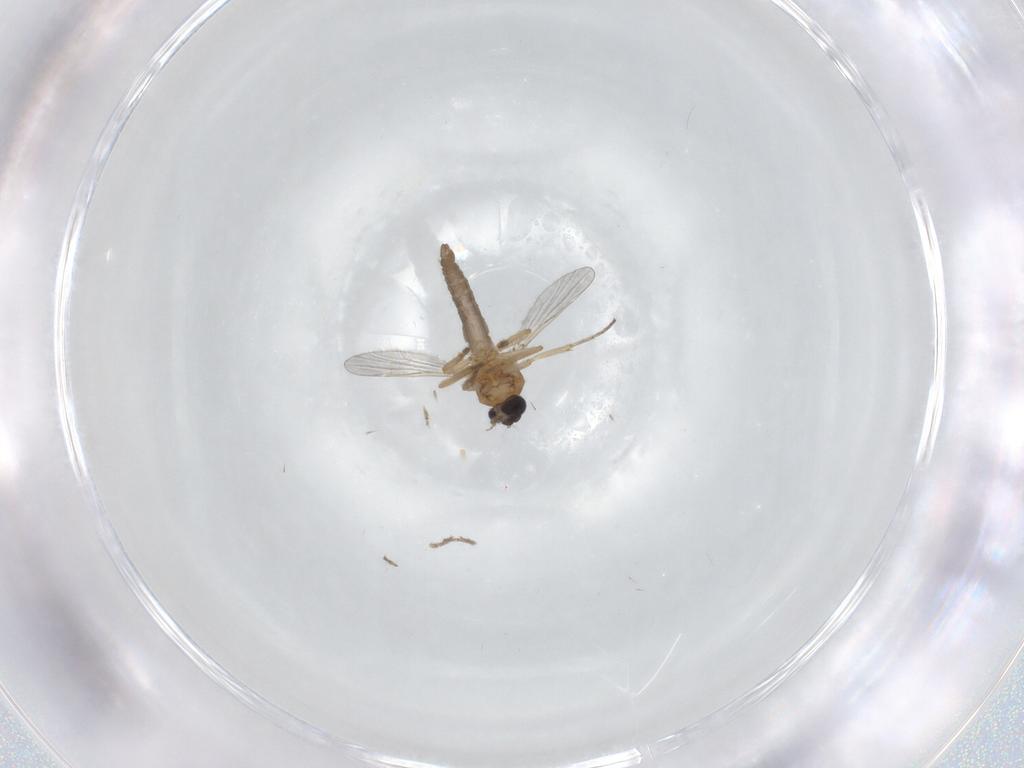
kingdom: Animalia
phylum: Arthropoda
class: Insecta
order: Diptera
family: Ceratopogonidae
